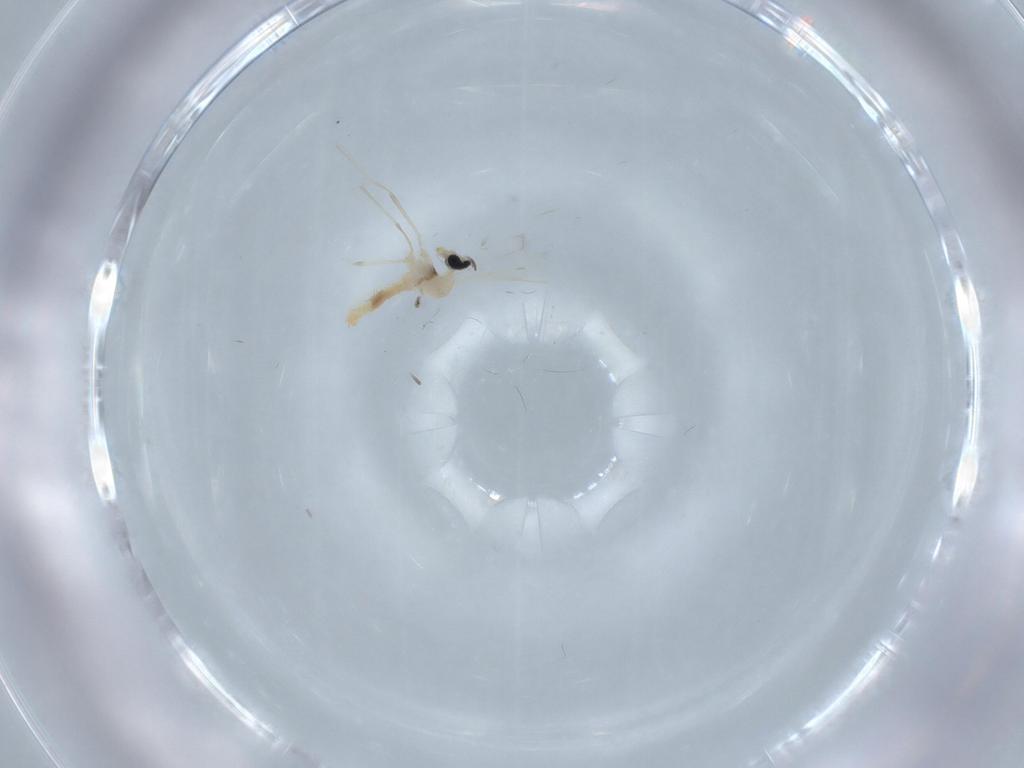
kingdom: Animalia
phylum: Arthropoda
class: Insecta
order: Diptera
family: Cecidomyiidae
